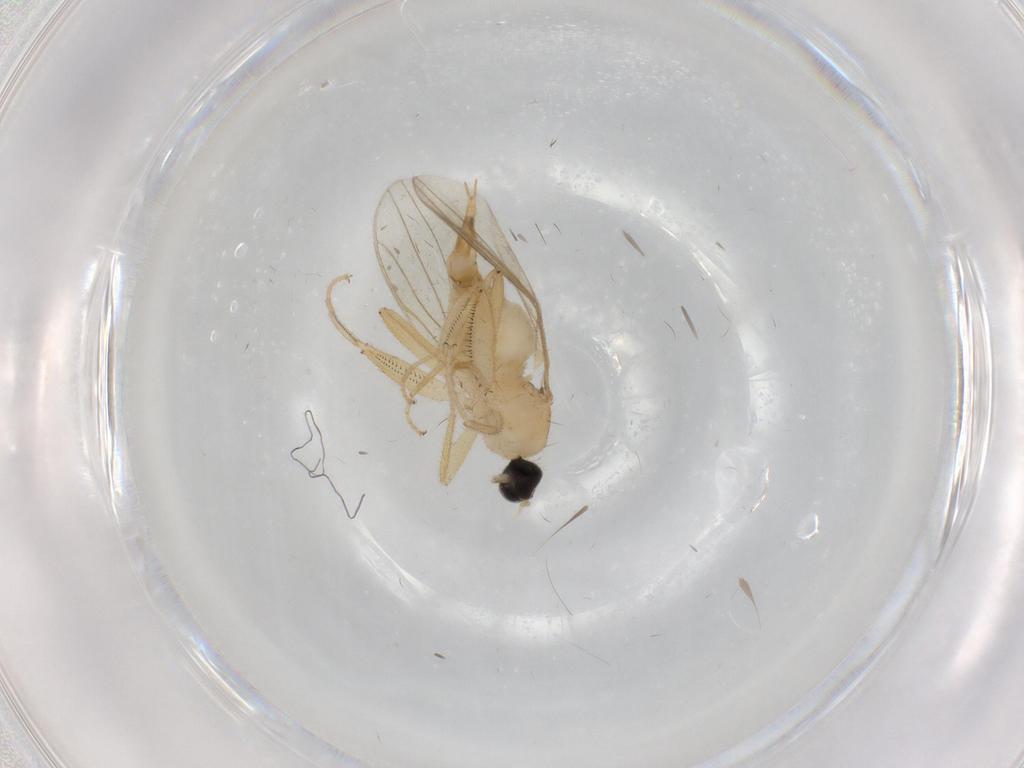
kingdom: Animalia
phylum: Arthropoda
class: Insecta
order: Diptera
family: Hybotidae
